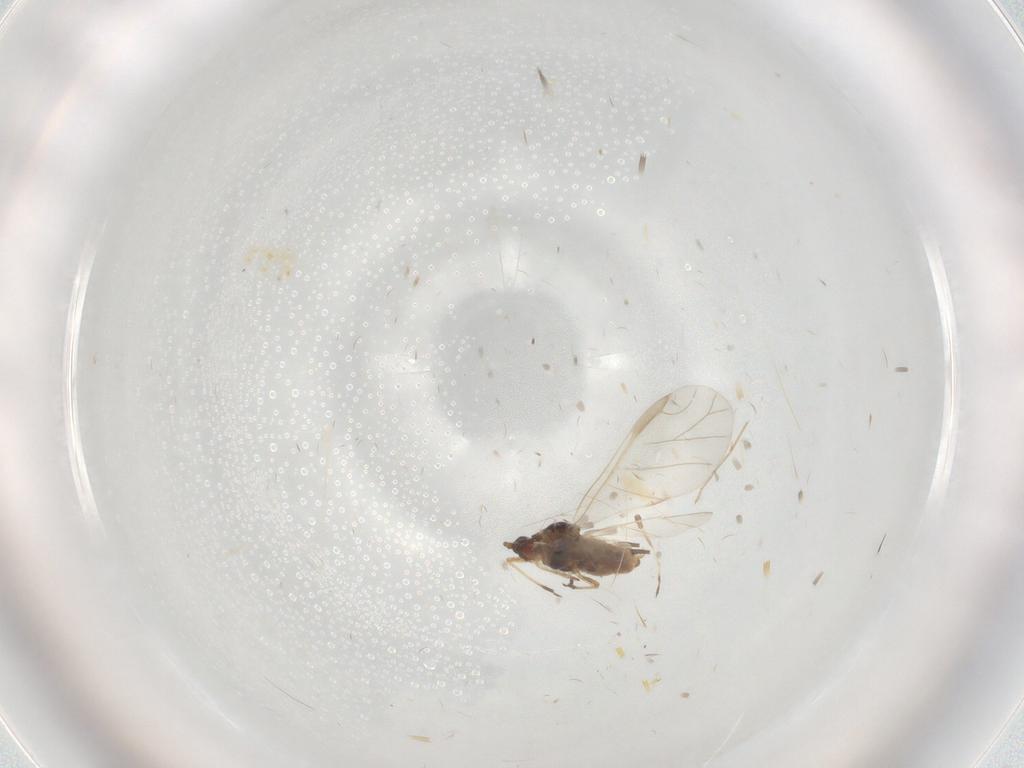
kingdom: Animalia
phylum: Arthropoda
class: Insecta
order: Hemiptera
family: Aphididae
